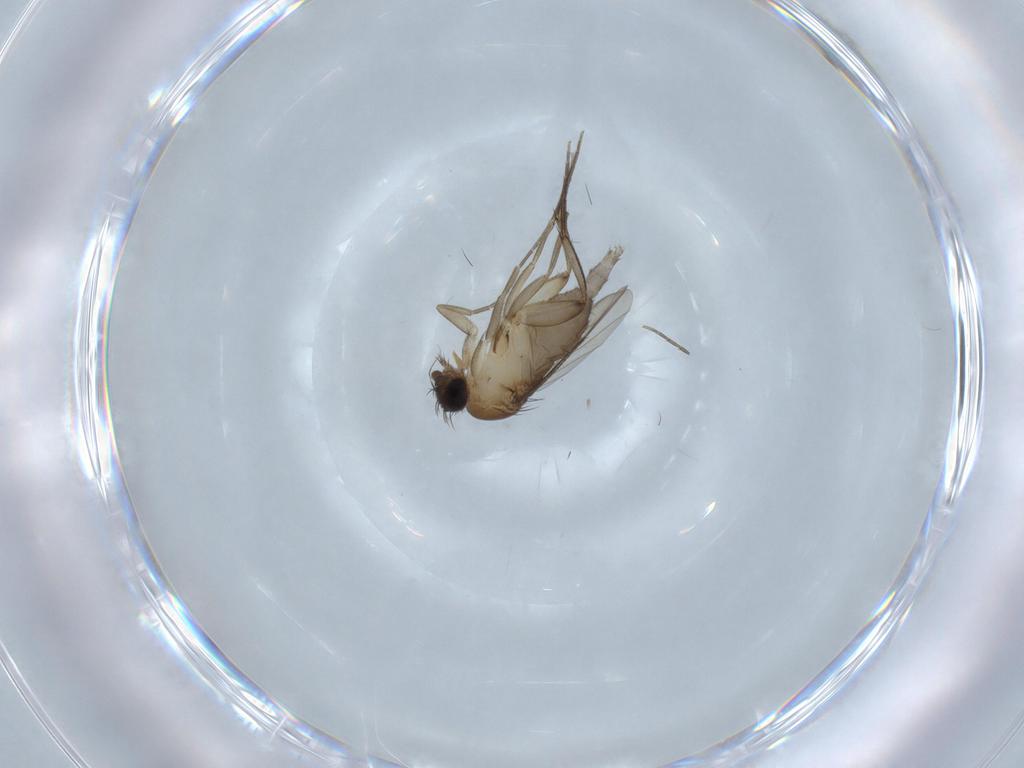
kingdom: Animalia
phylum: Arthropoda
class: Insecta
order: Diptera
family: Phoridae
